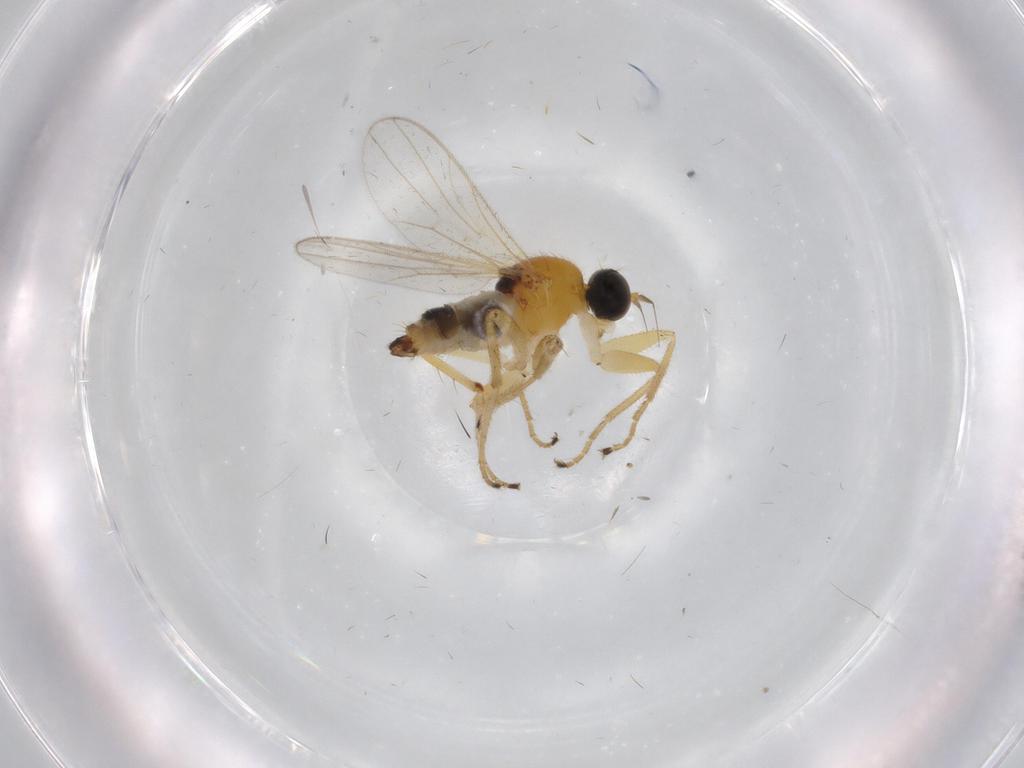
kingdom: Animalia
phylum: Arthropoda
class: Insecta
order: Diptera
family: Hybotidae
